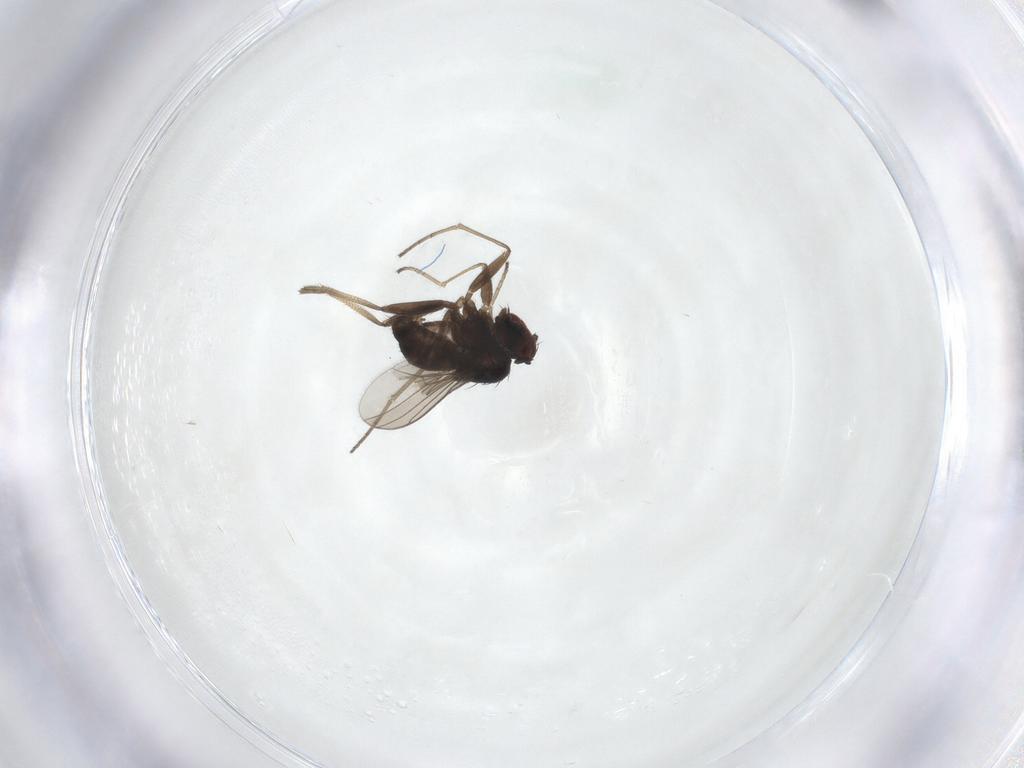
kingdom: Animalia
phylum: Arthropoda
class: Insecta
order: Diptera
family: Dolichopodidae
